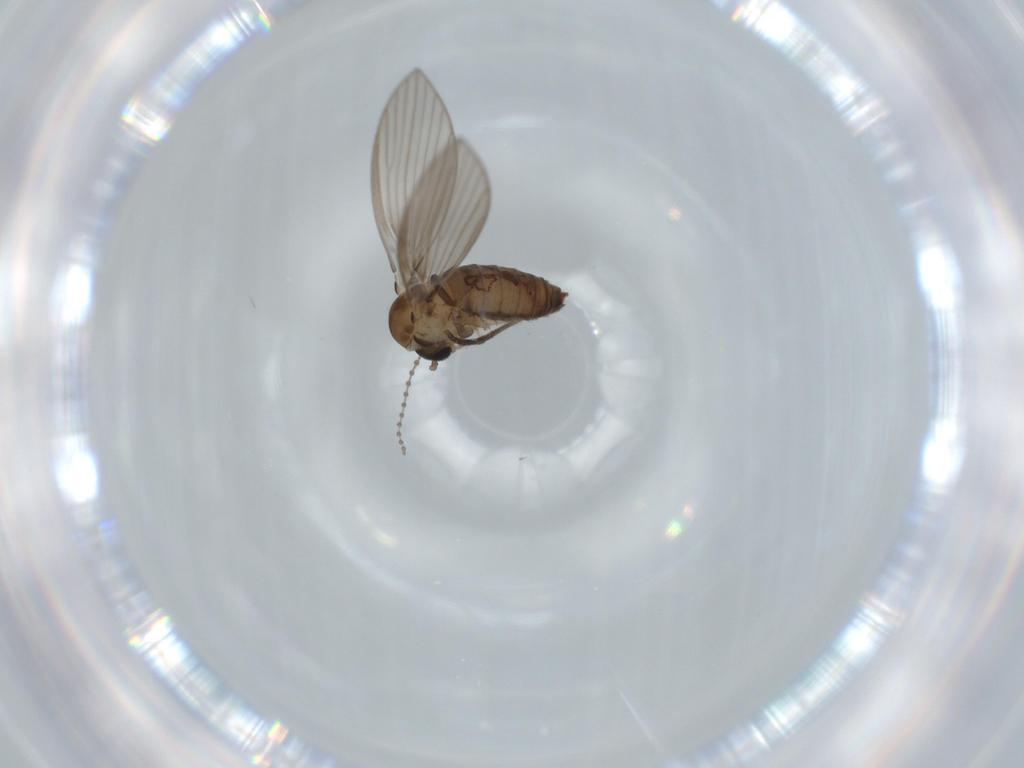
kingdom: Animalia
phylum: Arthropoda
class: Insecta
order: Diptera
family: Psychodidae
